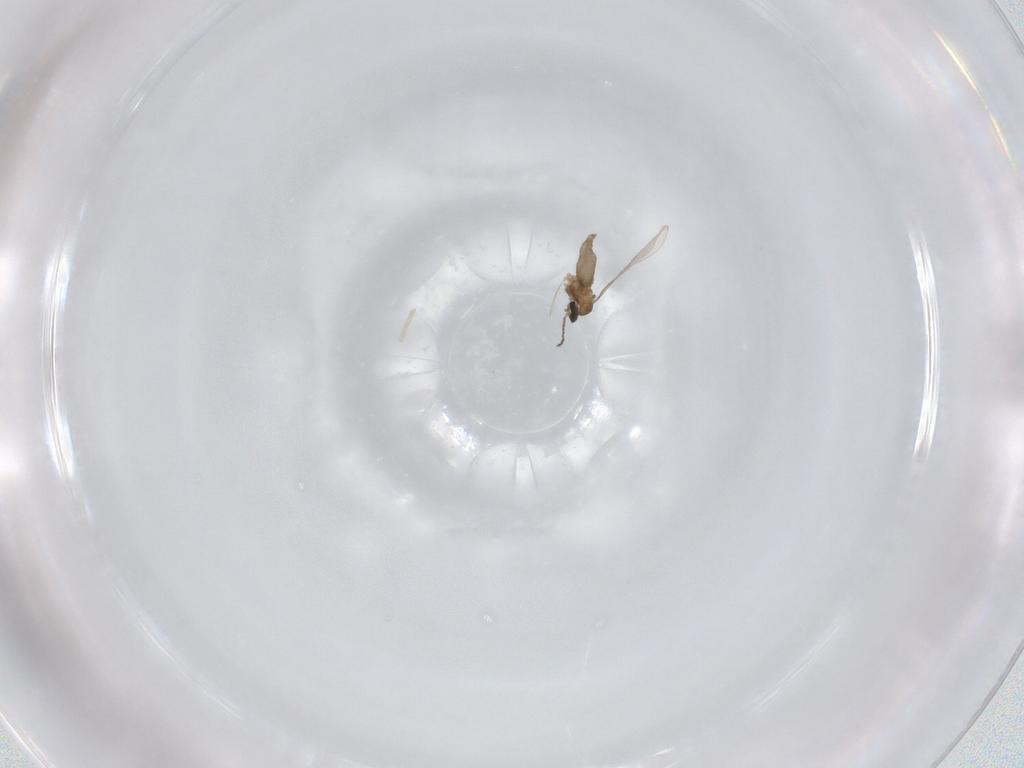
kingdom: Animalia
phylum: Arthropoda
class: Insecta
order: Diptera
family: Cecidomyiidae
